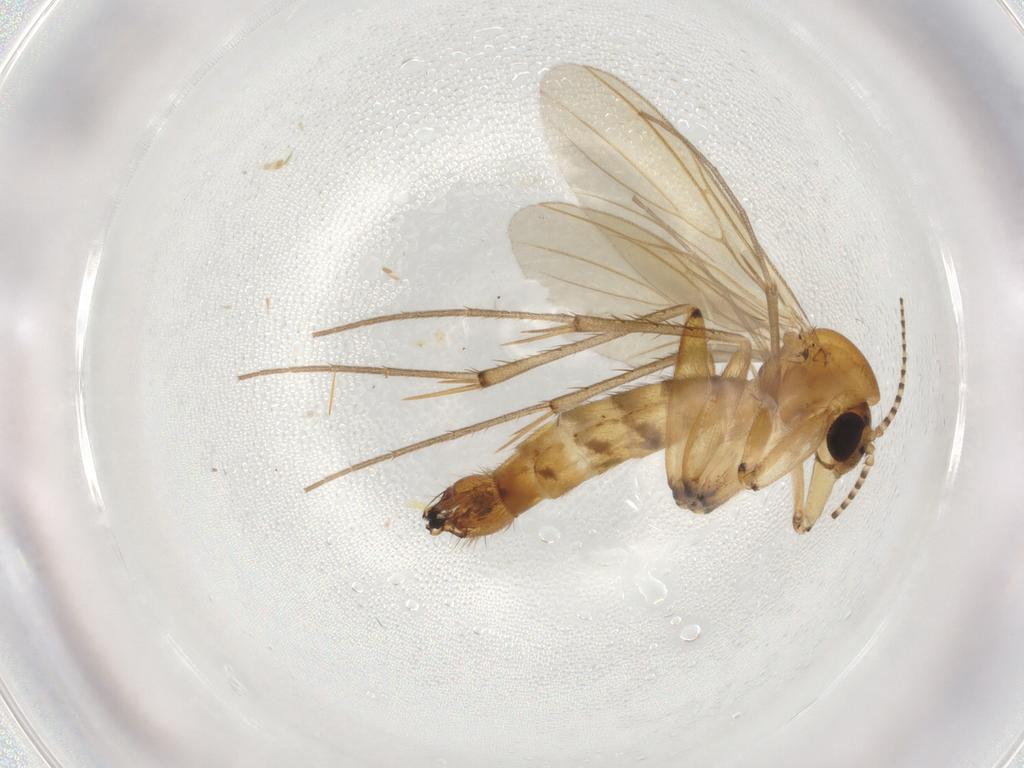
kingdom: Animalia
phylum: Arthropoda
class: Insecta
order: Diptera
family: Mycetophilidae
